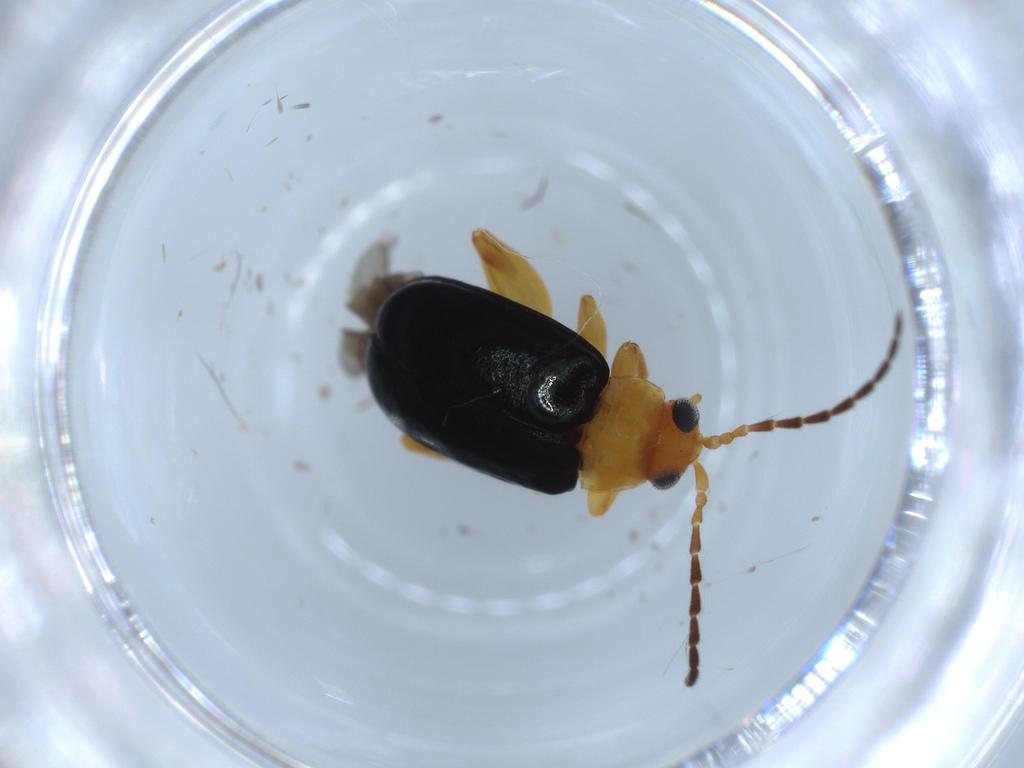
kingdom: Animalia
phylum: Arthropoda
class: Insecta
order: Coleoptera
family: Chrysomelidae
